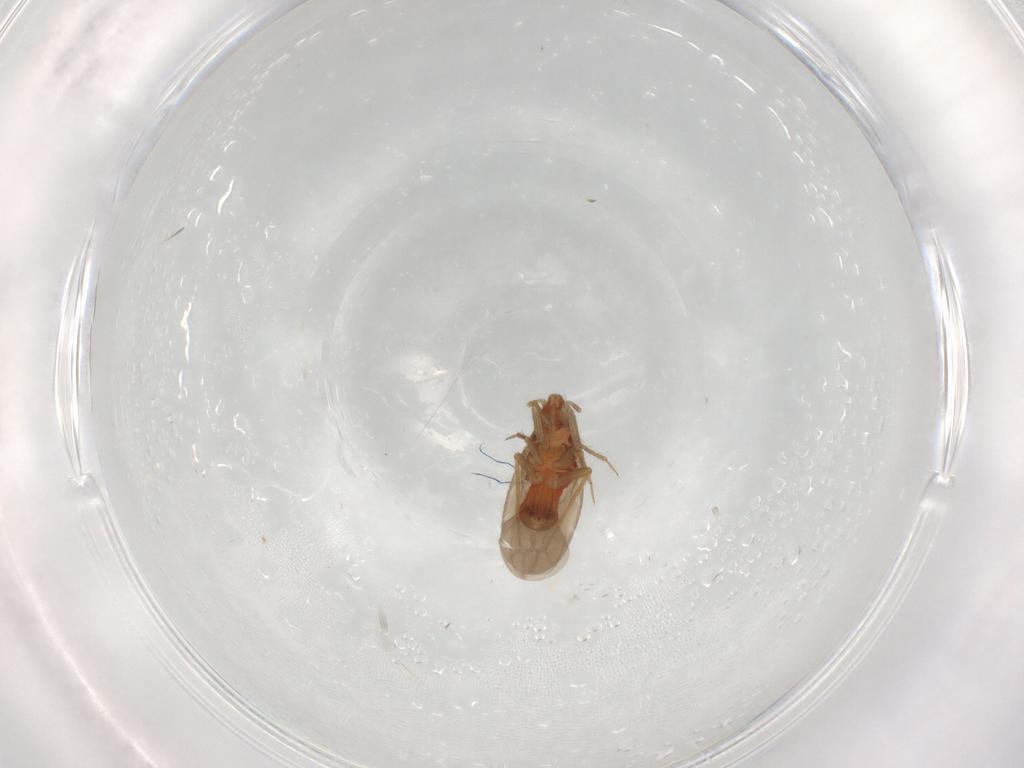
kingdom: Animalia
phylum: Arthropoda
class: Insecta
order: Hemiptera
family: Ceratocombidae
